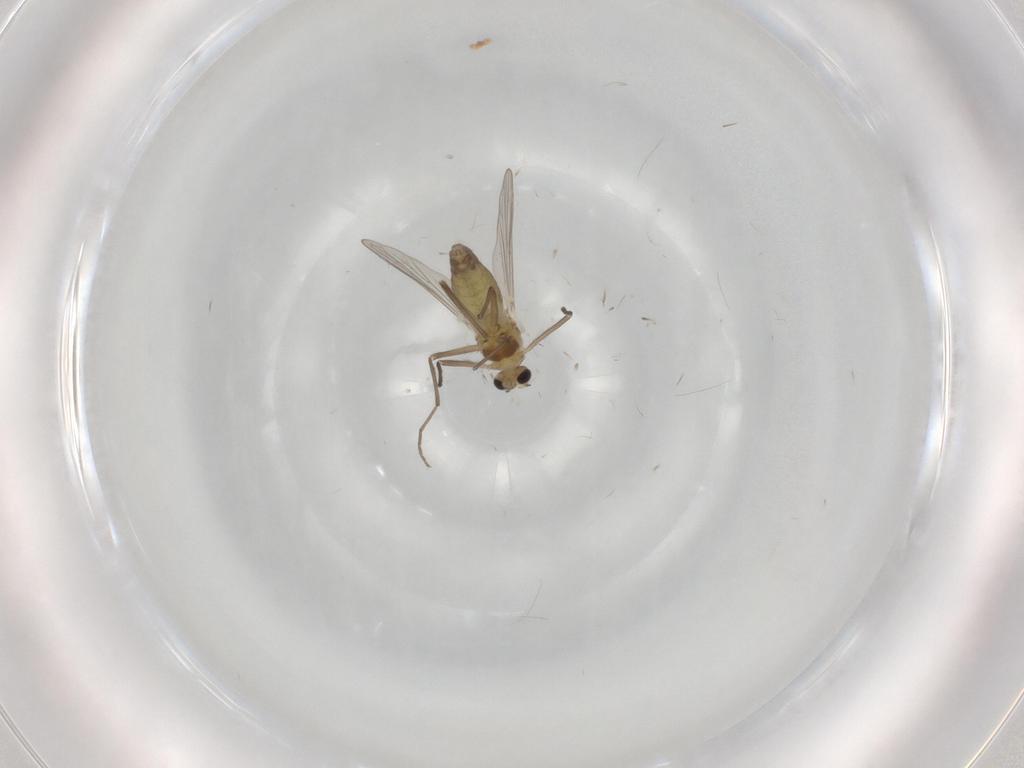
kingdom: Animalia
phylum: Arthropoda
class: Insecta
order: Diptera
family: Chironomidae
